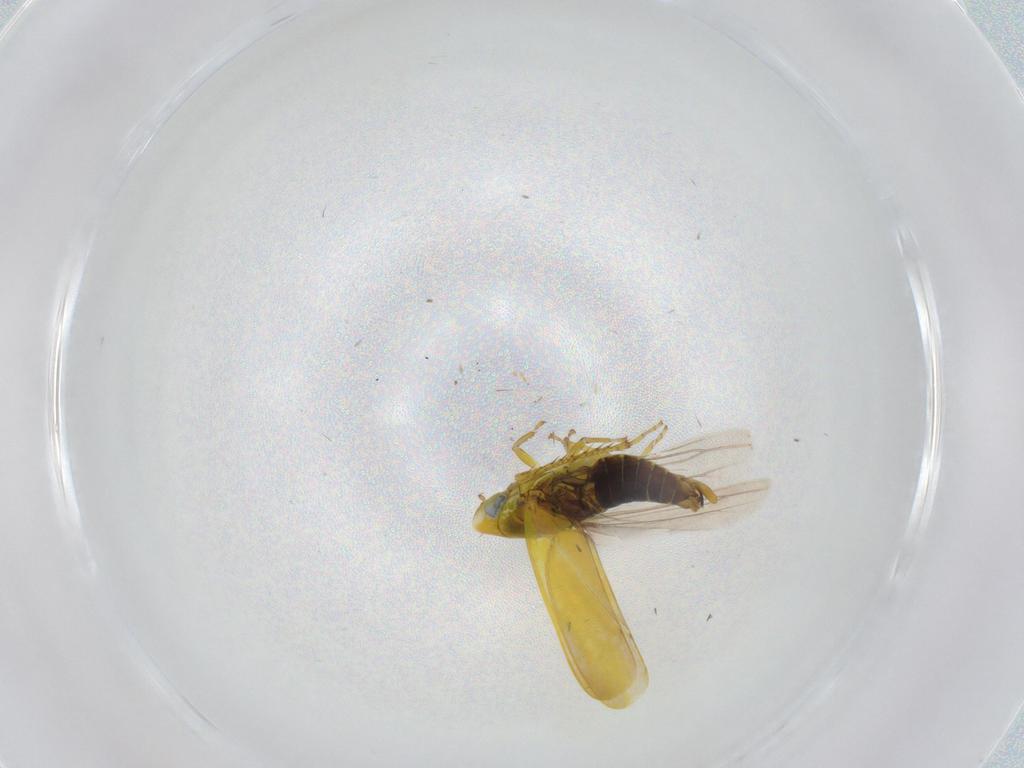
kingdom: Animalia
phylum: Arthropoda
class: Insecta
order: Hemiptera
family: Cicadellidae
